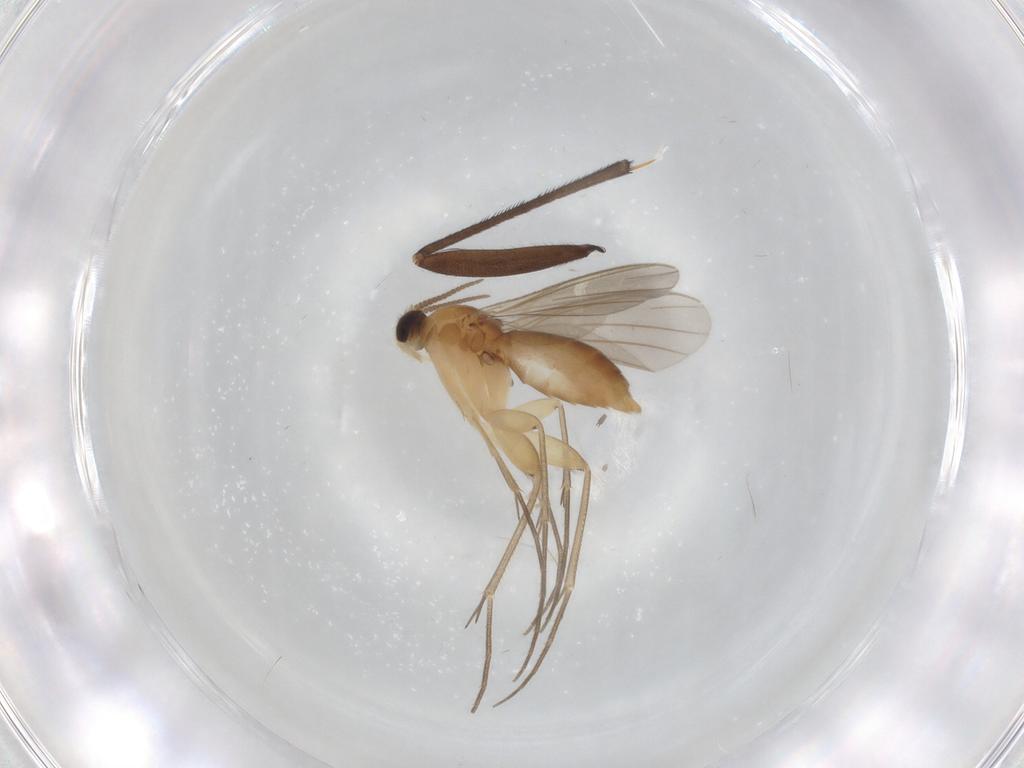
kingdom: Animalia
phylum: Arthropoda
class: Insecta
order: Diptera
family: Mycetophilidae
